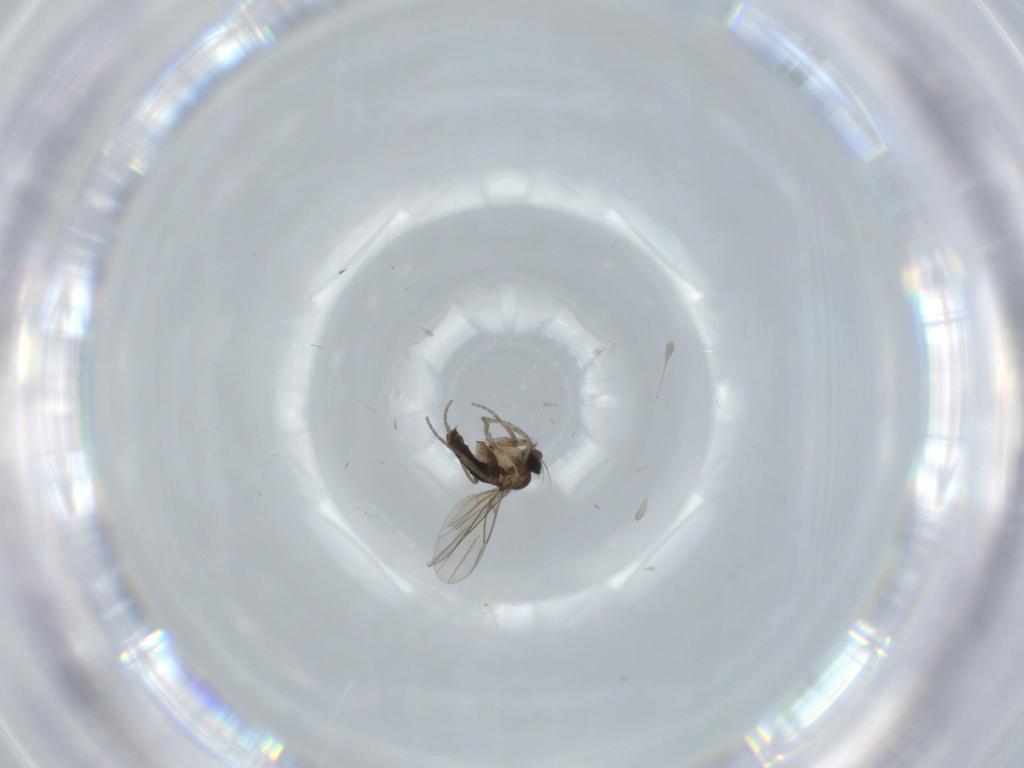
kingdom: Animalia
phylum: Arthropoda
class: Insecta
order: Diptera
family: Phoridae
